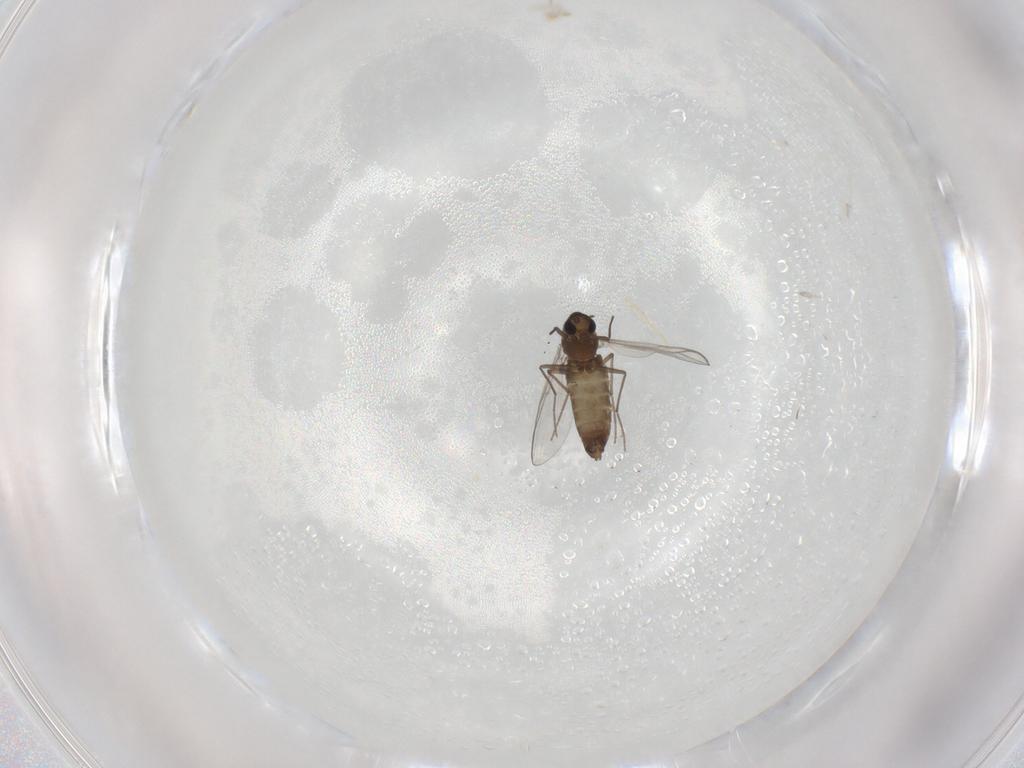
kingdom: Animalia
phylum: Arthropoda
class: Insecta
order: Diptera
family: Chironomidae
